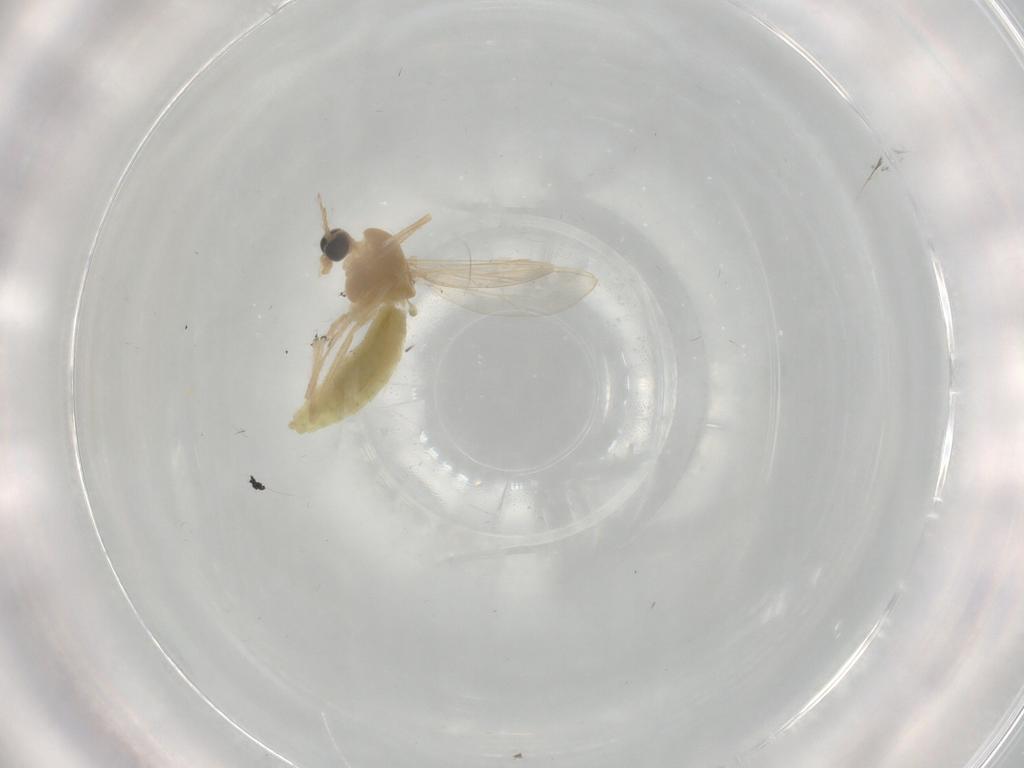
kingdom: Animalia
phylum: Arthropoda
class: Insecta
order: Diptera
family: Chironomidae
